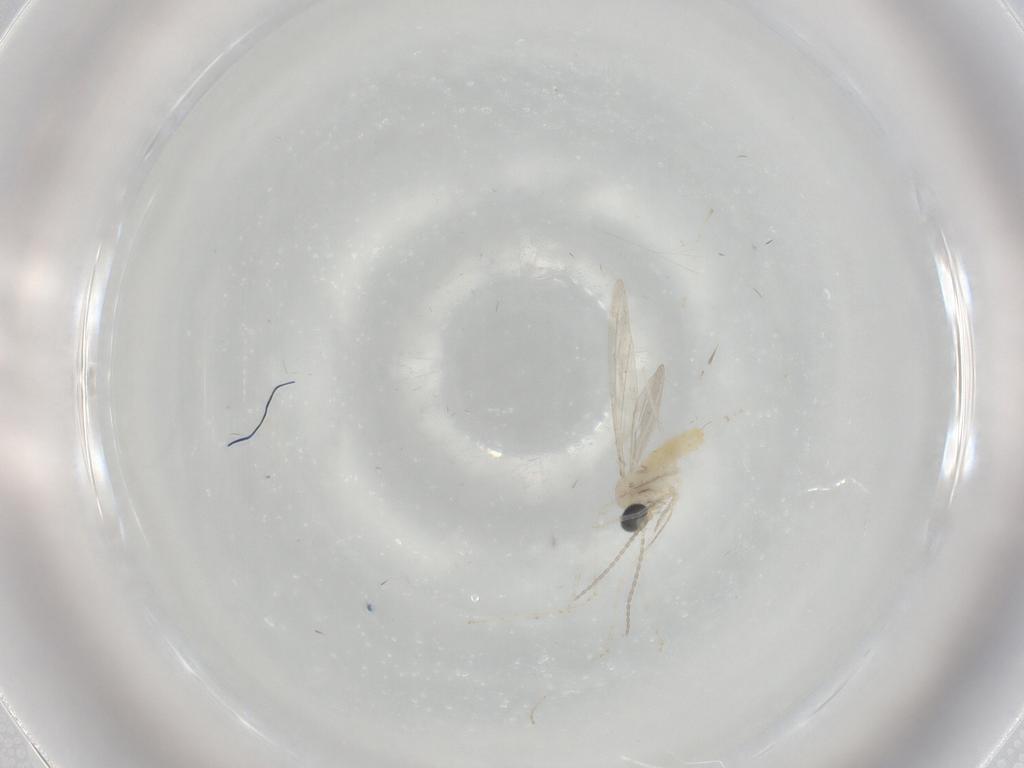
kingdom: Animalia
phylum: Arthropoda
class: Insecta
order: Diptera
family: Cecidomyiidae
